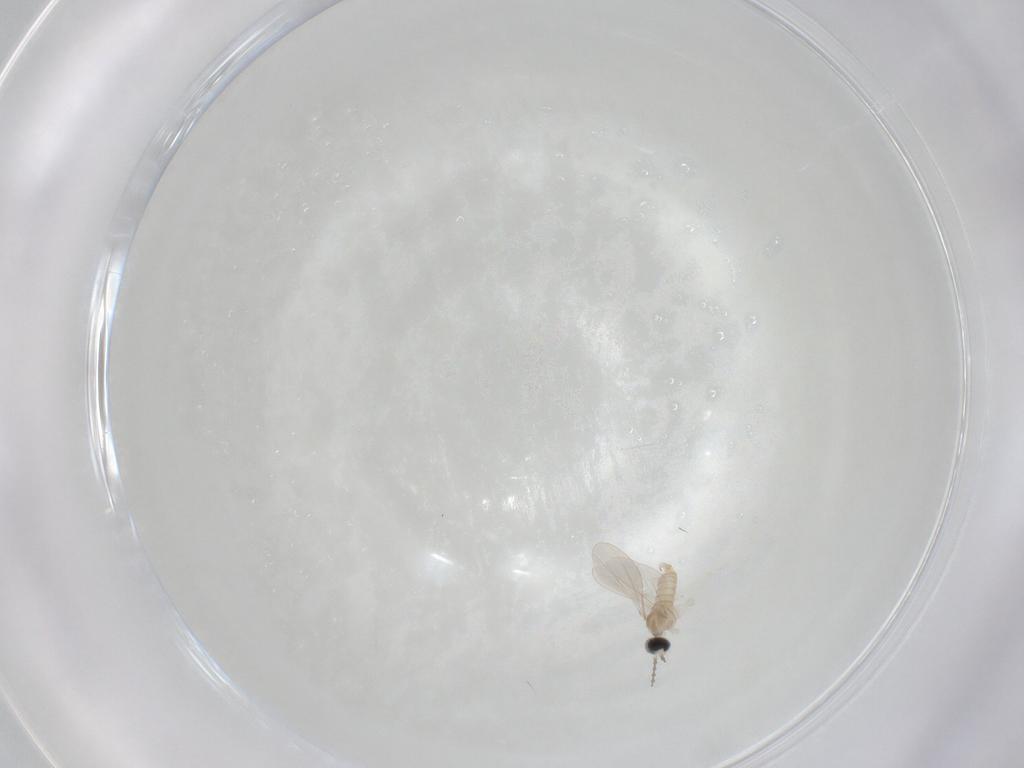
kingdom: Animalia
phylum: Arthropoda
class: Insecta
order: Diptera
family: Cecidomyiidae
